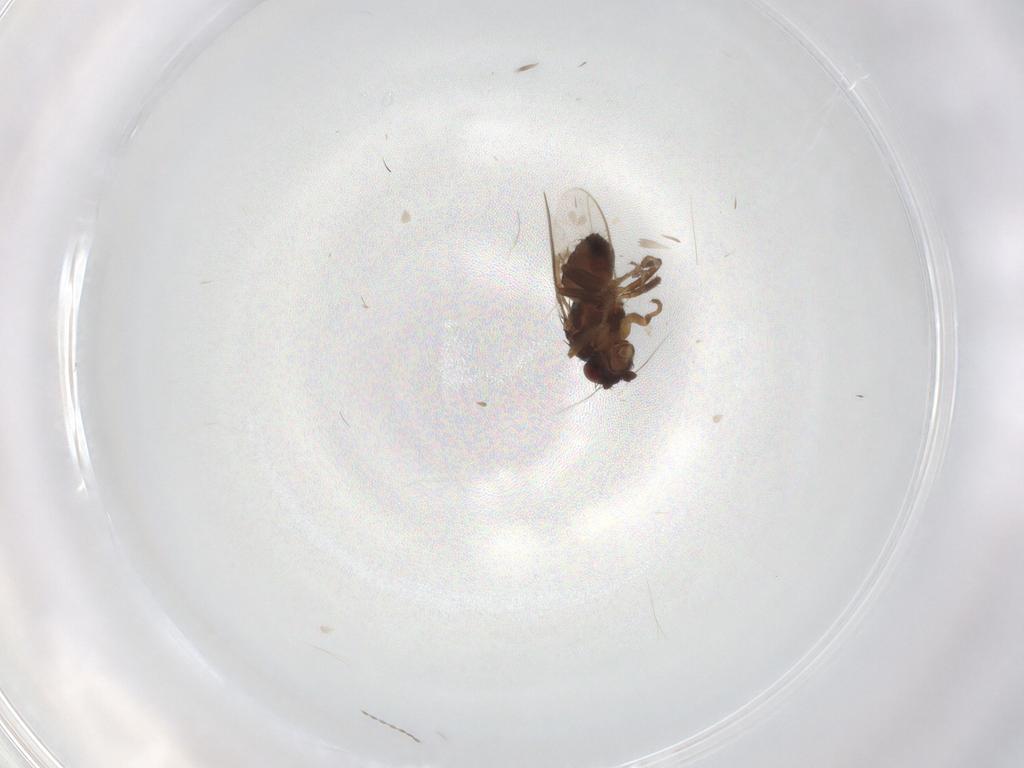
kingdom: Animalia
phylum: Arthropoda
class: Insecta
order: Diptera
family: Sphaeroceridae
